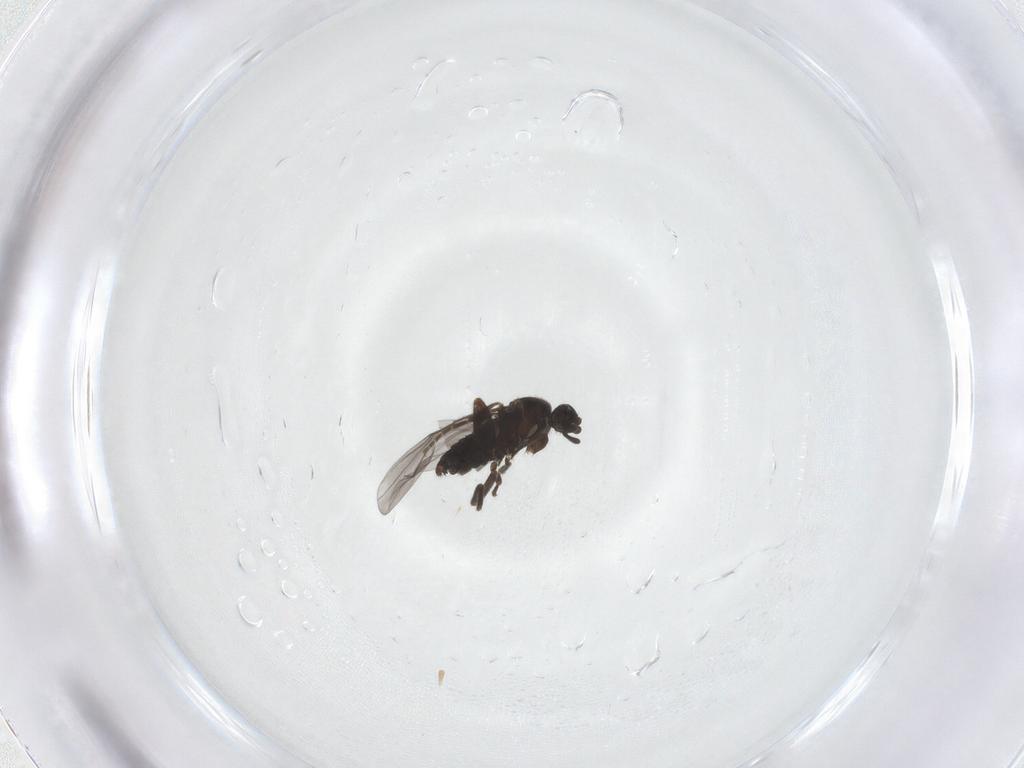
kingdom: Animalia
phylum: Arthropoda
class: Insecta
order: Diptera
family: Phoridae
